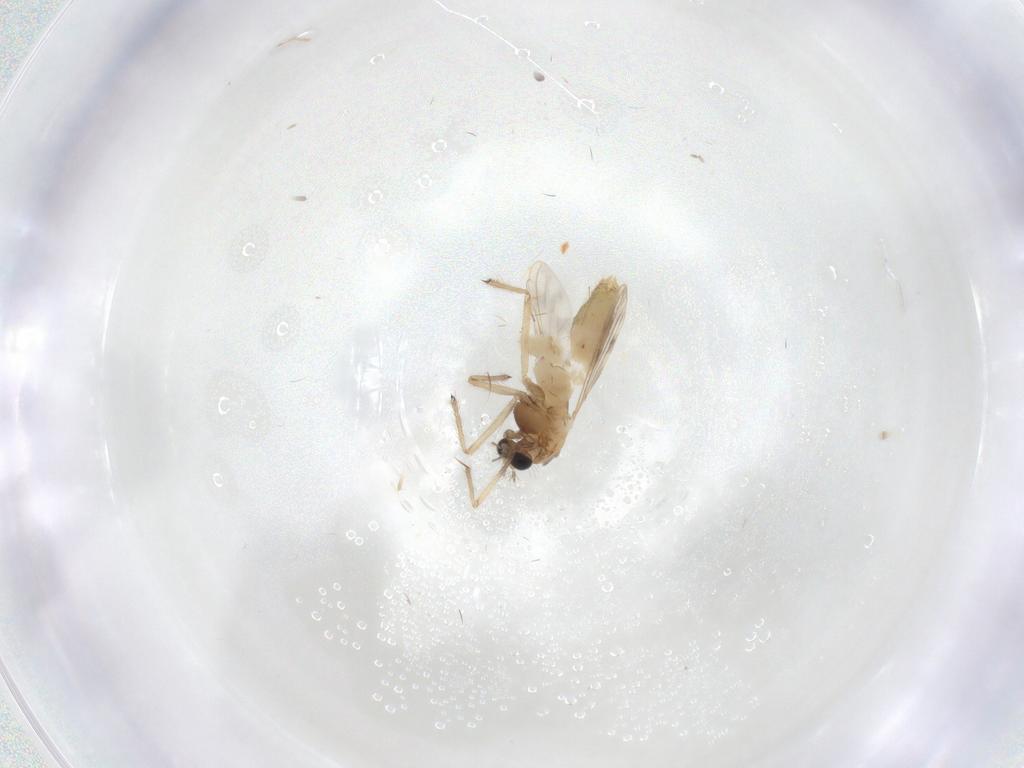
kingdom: Animalia
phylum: Arthropoda
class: Insecta
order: Diptera
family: Chironomidae
